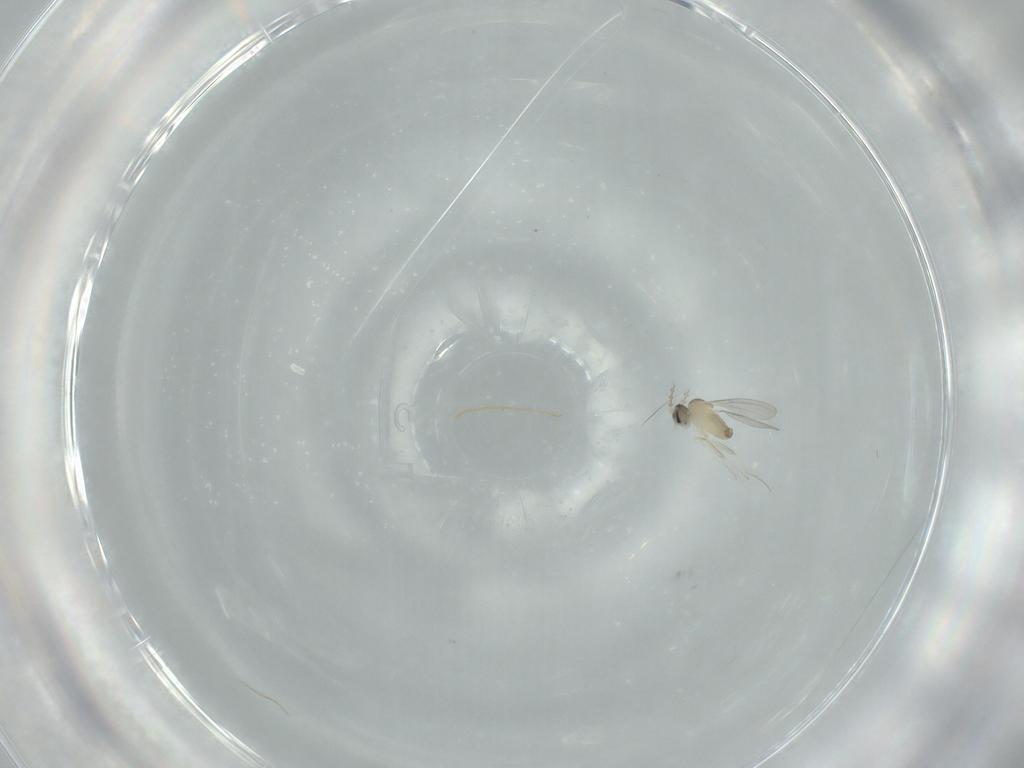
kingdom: Animalia
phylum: Arthropoda
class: Insecta
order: Diptera
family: Cecidomyiidae
